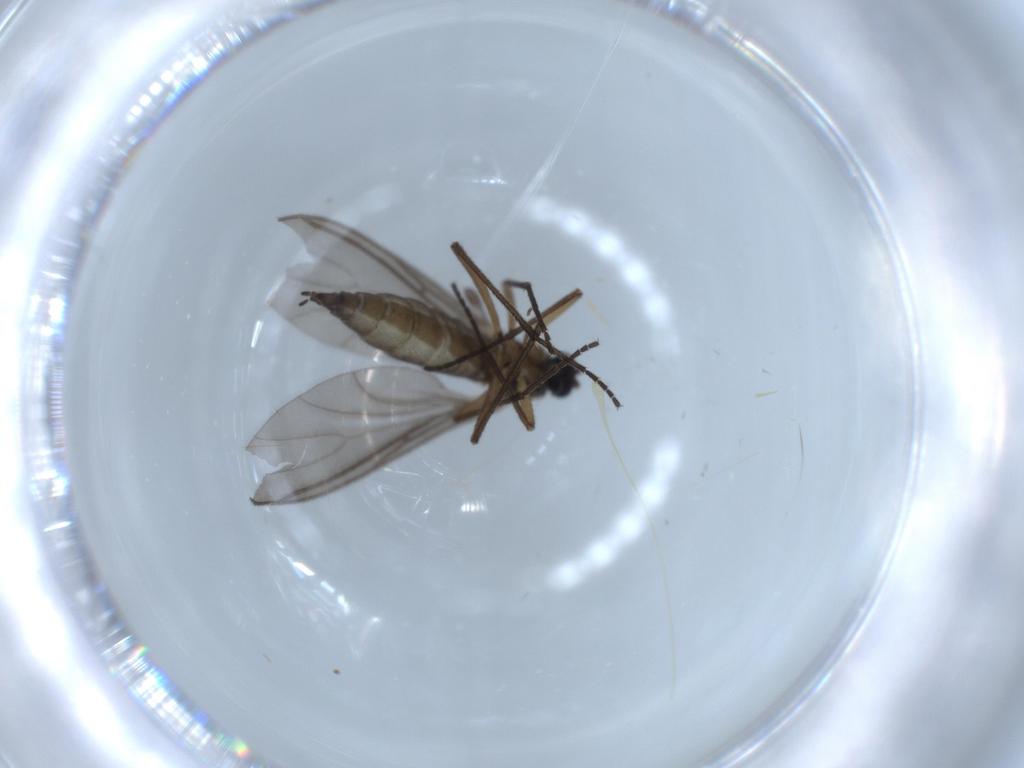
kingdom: Animalia
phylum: Arthropoda
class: Insecta
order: Diptera
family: Sciaridae
